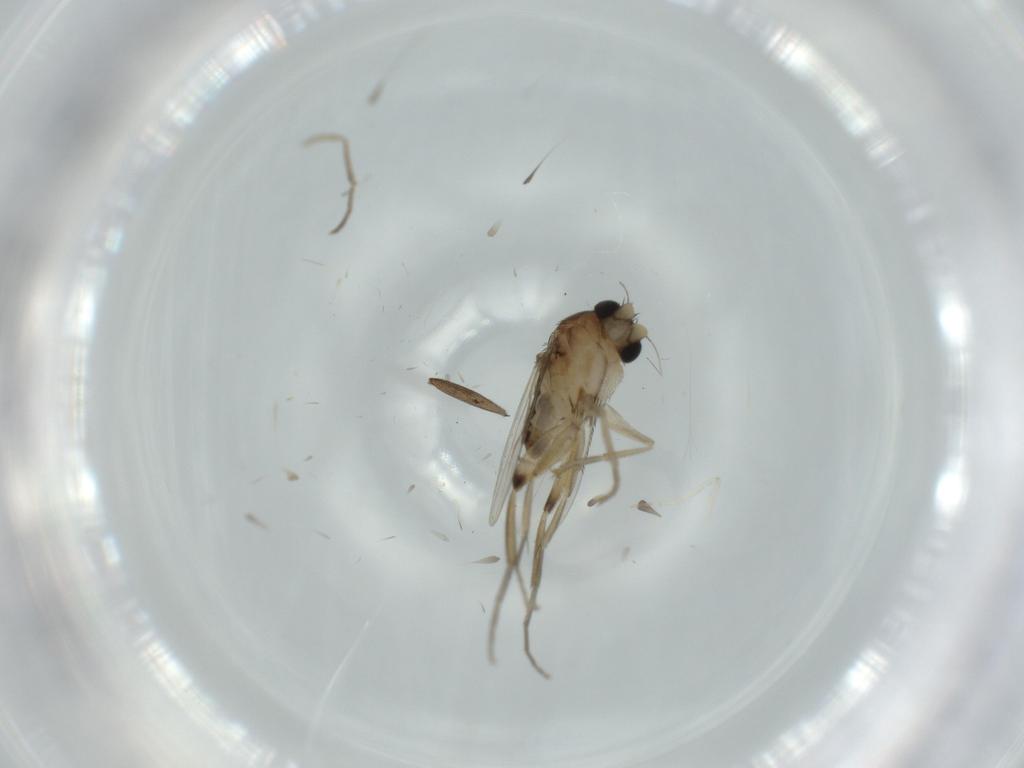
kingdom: Animalia
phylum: Arthropoda
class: Insecta
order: Diptera
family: Phoridae
